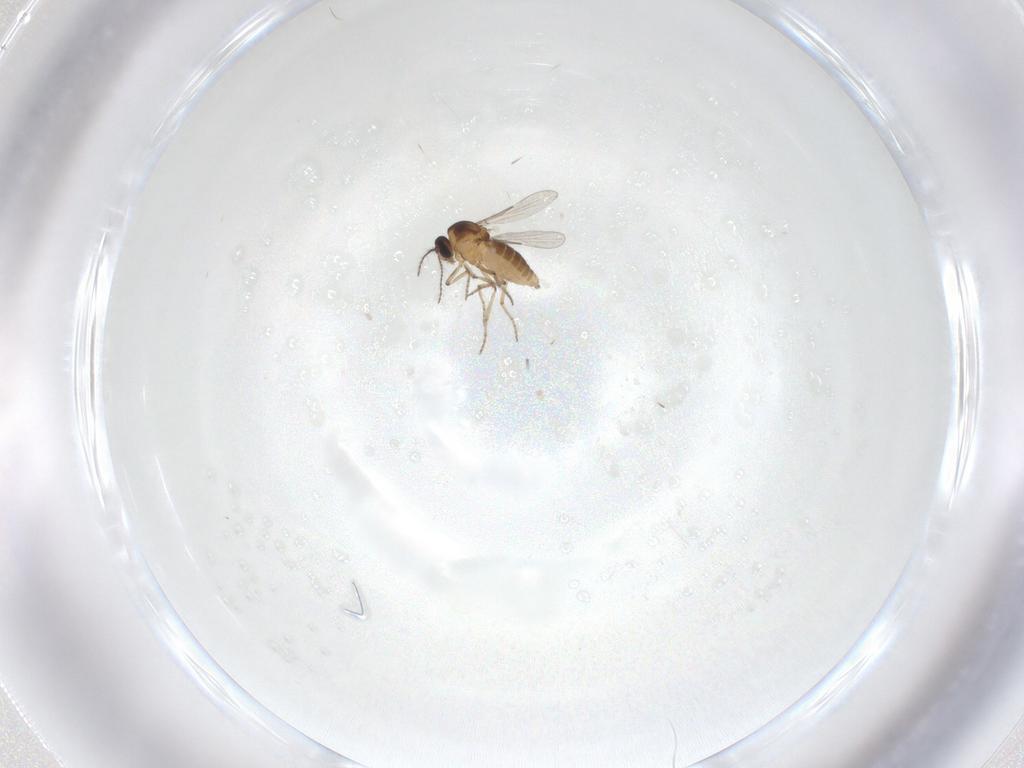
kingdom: Animalia
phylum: Arthropoda
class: Insecta
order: Diptera
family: Ceratopogonidae
